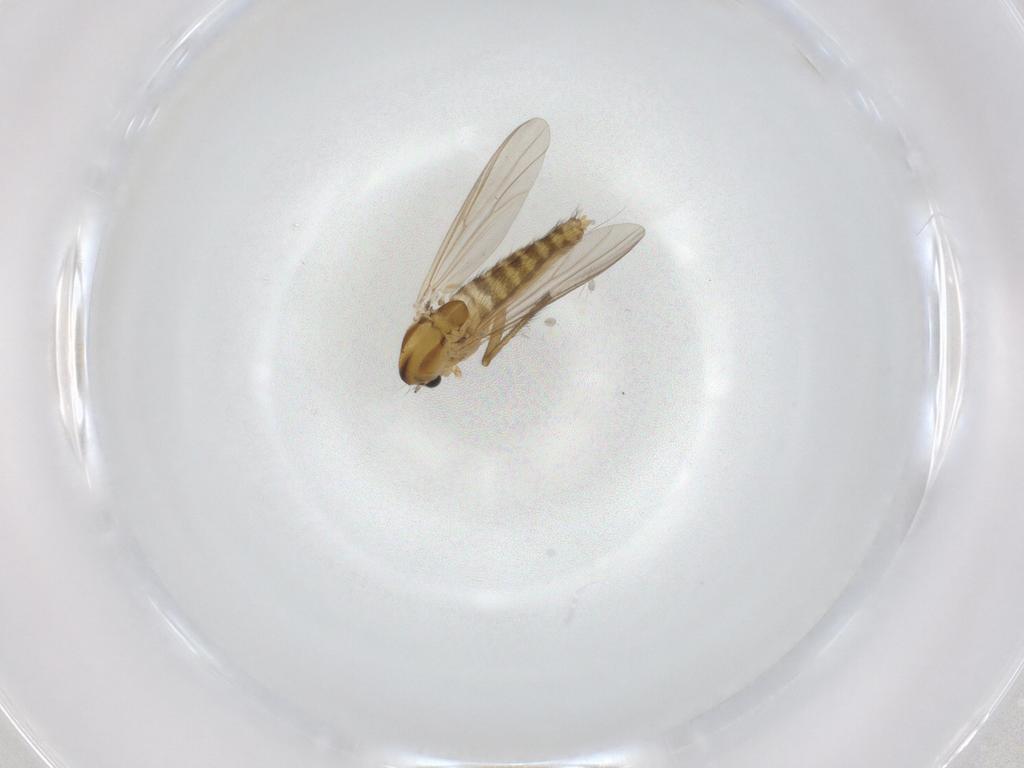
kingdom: Animalia
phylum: Arthropoda
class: Insecta
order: Diptera
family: Chironomidae
